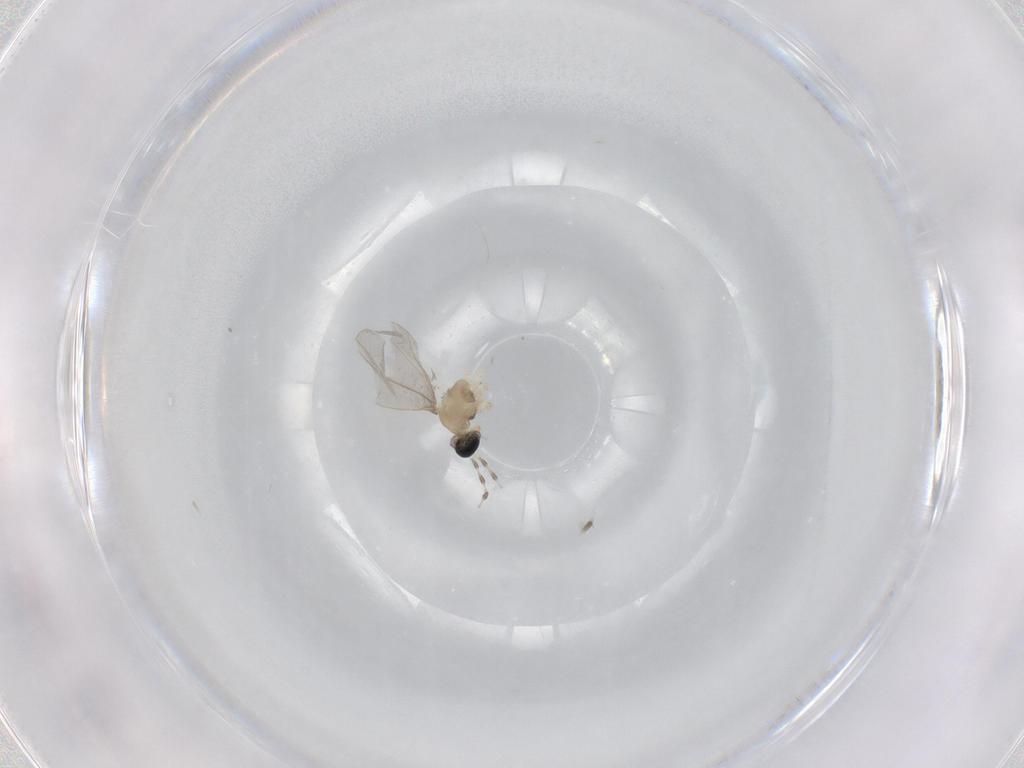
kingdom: Animalia
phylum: Arthropoda
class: Insecta
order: Diptera
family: Cecidomyiidae
